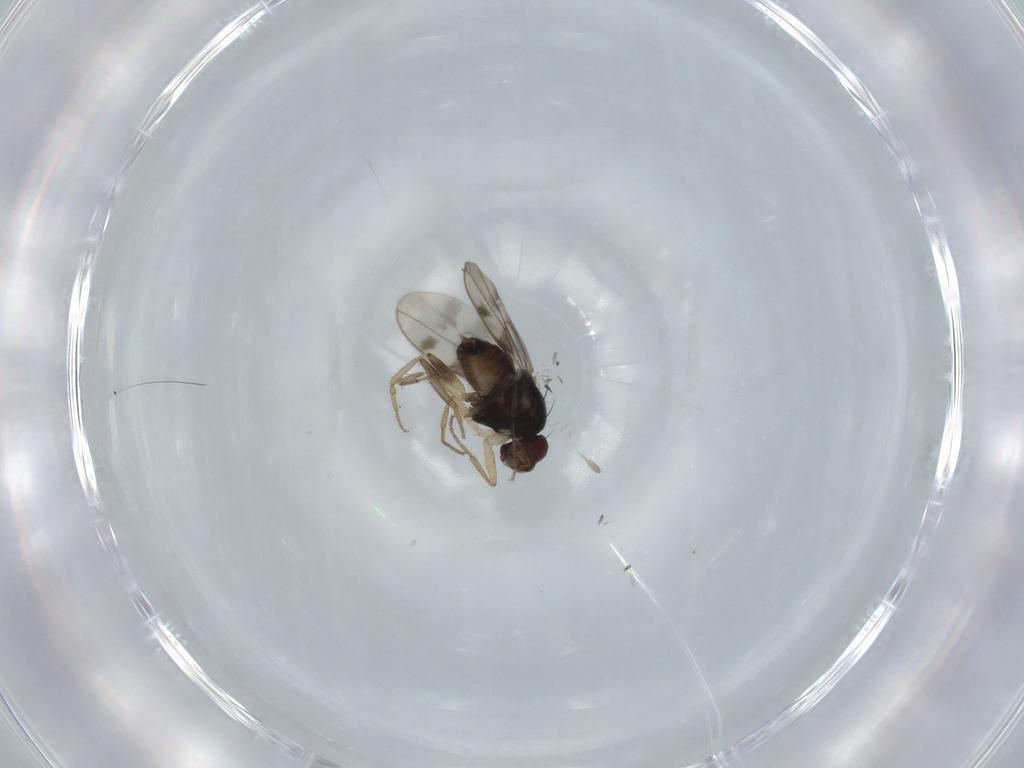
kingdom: Animalia
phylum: Arthropoda
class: Insecta
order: Diptera
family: Sphaeroceridae
